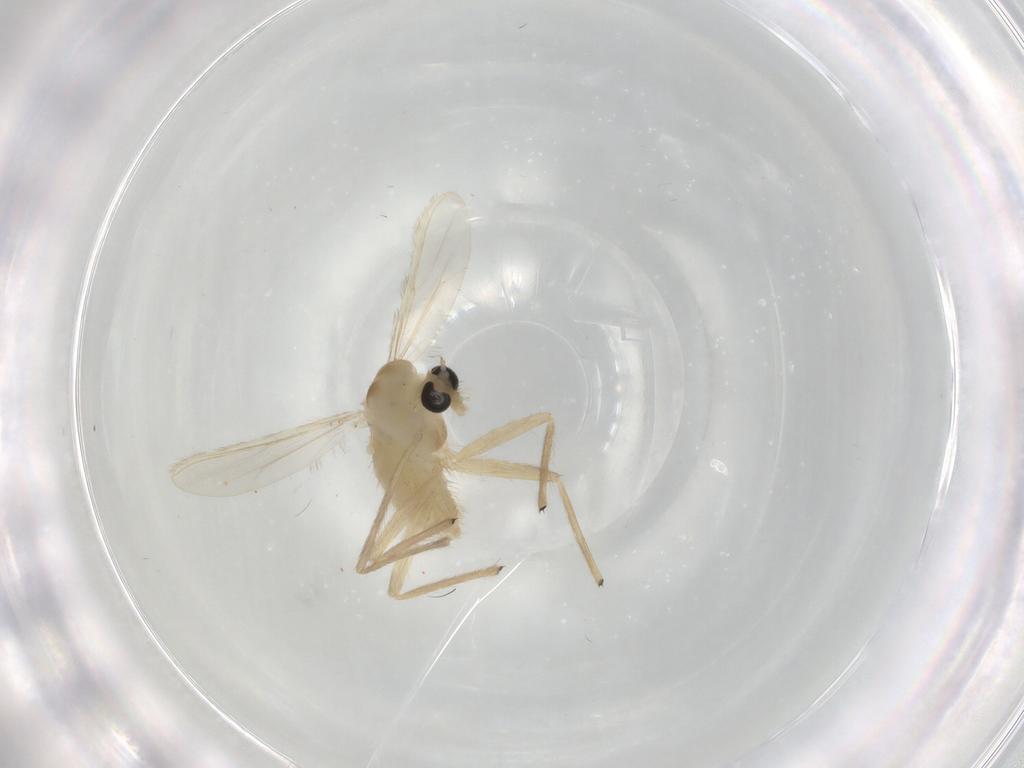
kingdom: Animalia
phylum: Arthropoda
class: Insecta
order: Diptera
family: Chironomidae
